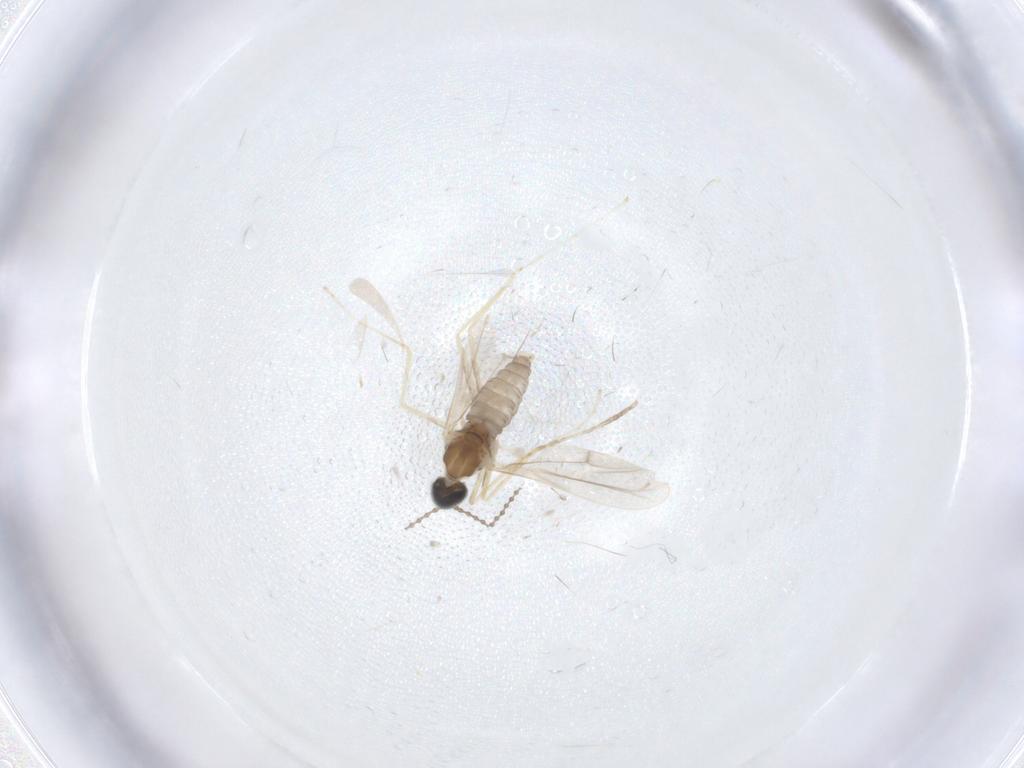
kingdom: Animalia
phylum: Arthropoda
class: Insecta
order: Diptera
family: Cecidomyiidae
